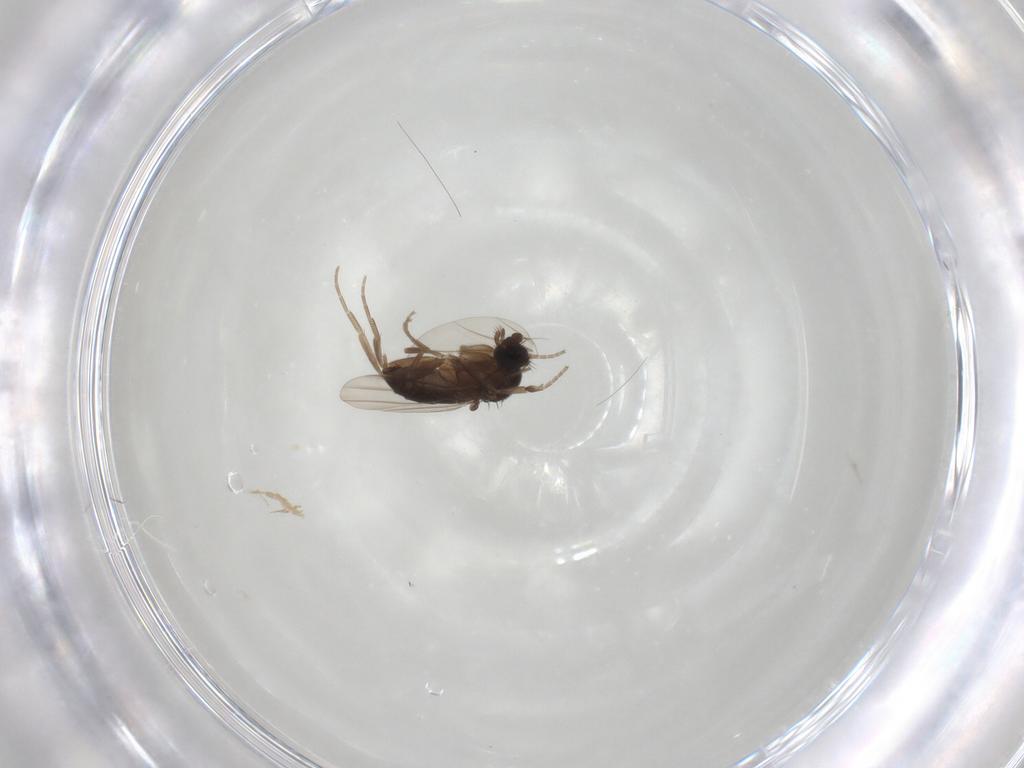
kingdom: Animalia
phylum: Arthropoda
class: Insecta
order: Diptera
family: Phoridae
